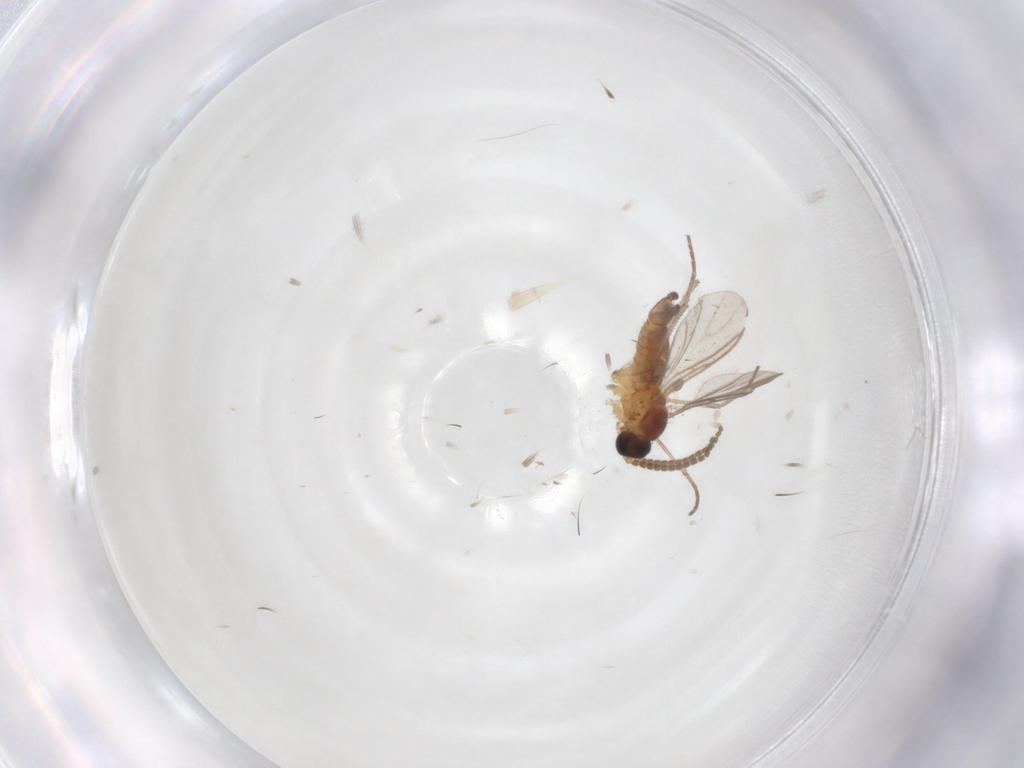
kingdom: Animalia
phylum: Arthropoda
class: Insecta
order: Diptera
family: Sciaridae
